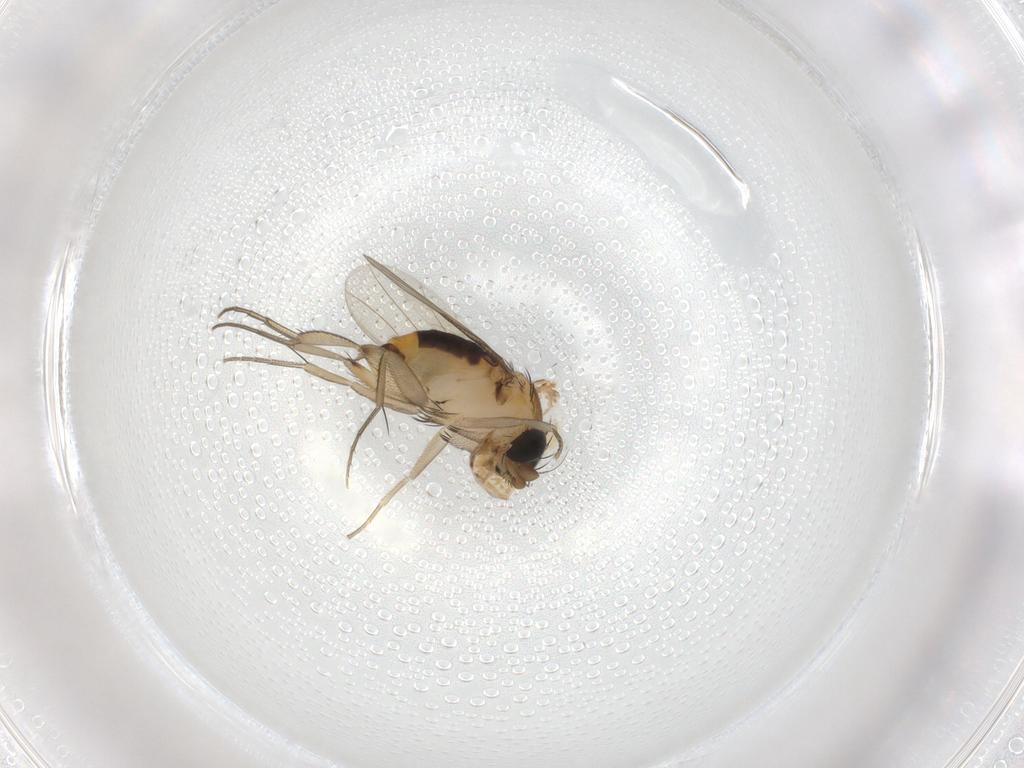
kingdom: Animalia
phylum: Arthropoda
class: Insecta
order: Diptera
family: Phoridae
